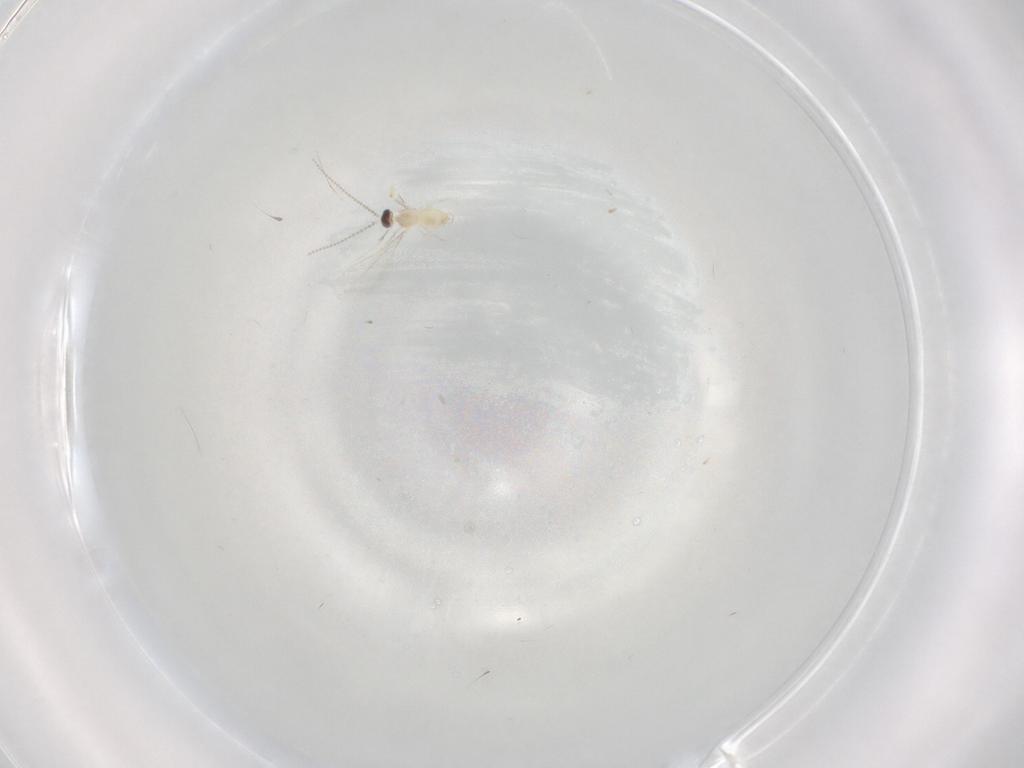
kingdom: Animalia
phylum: Arthropoda
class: Insecta
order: Diptera
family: Cecidomyiidae
